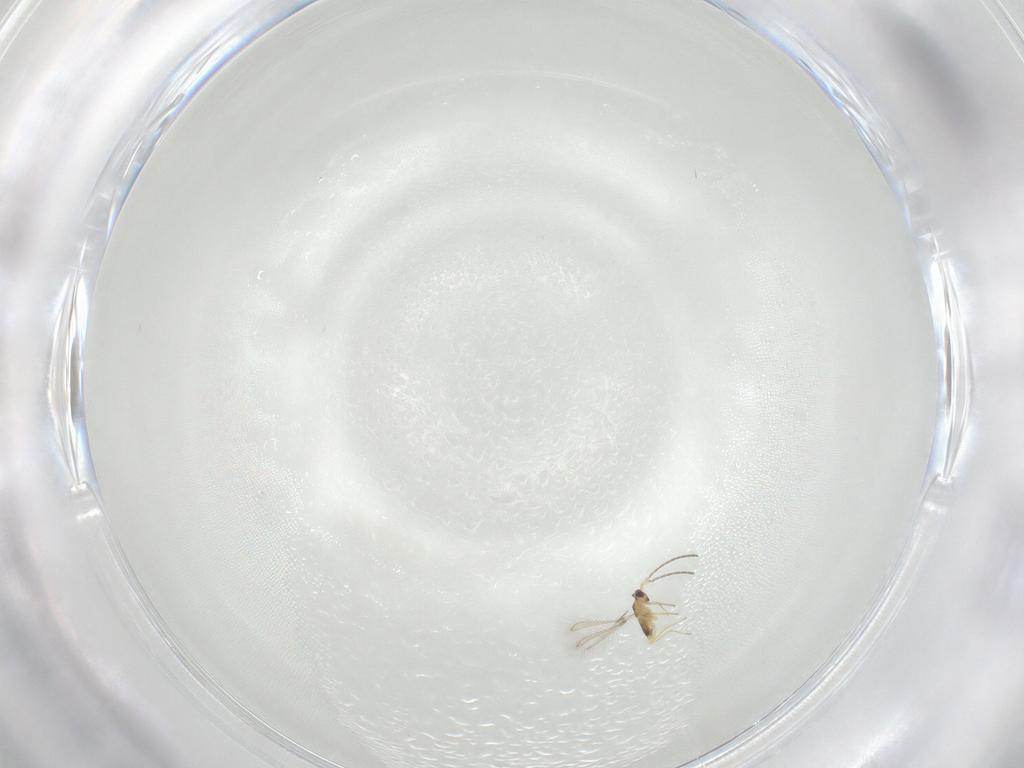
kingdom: Animalia
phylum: Arthropoda
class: Insecta
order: Hymenoptera
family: Mymaridae
